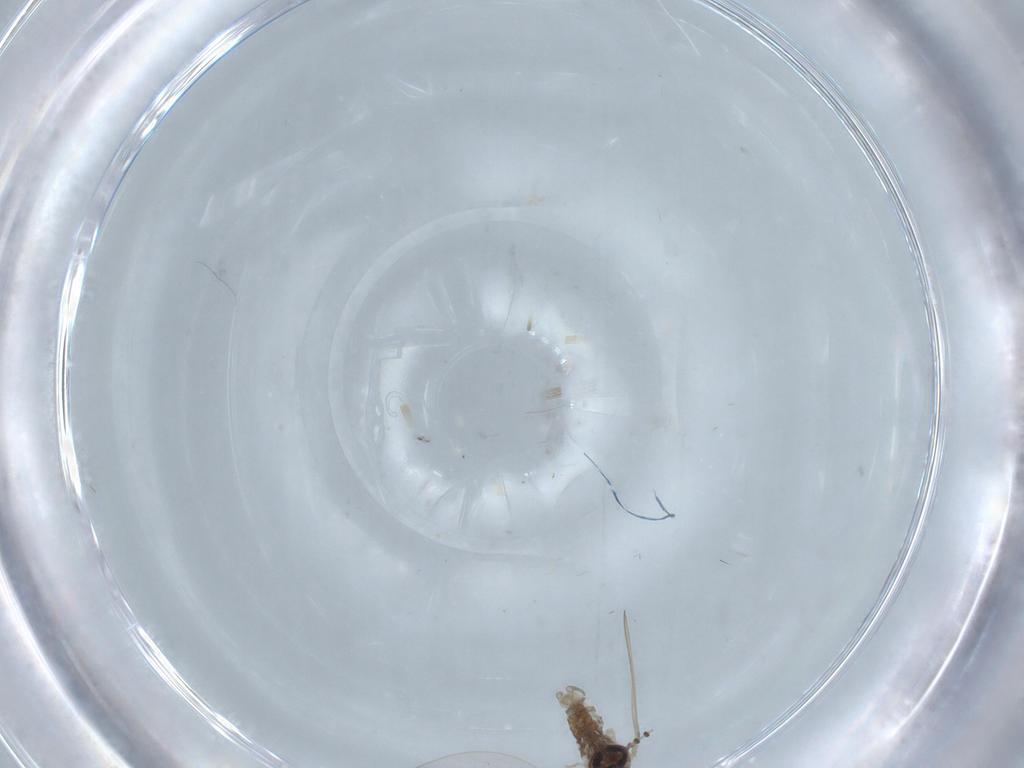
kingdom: Animalia
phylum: Arthropoda
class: Insecta
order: Diptera
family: Psychodidae
